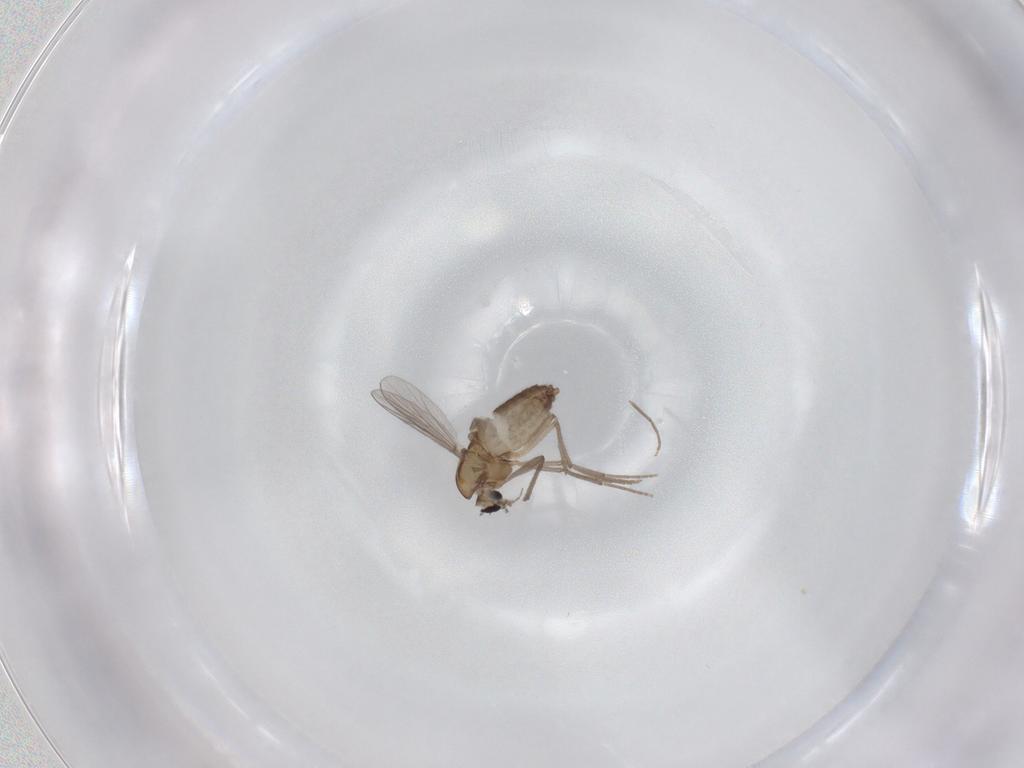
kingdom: Animalia
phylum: Arthropoda
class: Insecta
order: Diptera
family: Chironomidae
